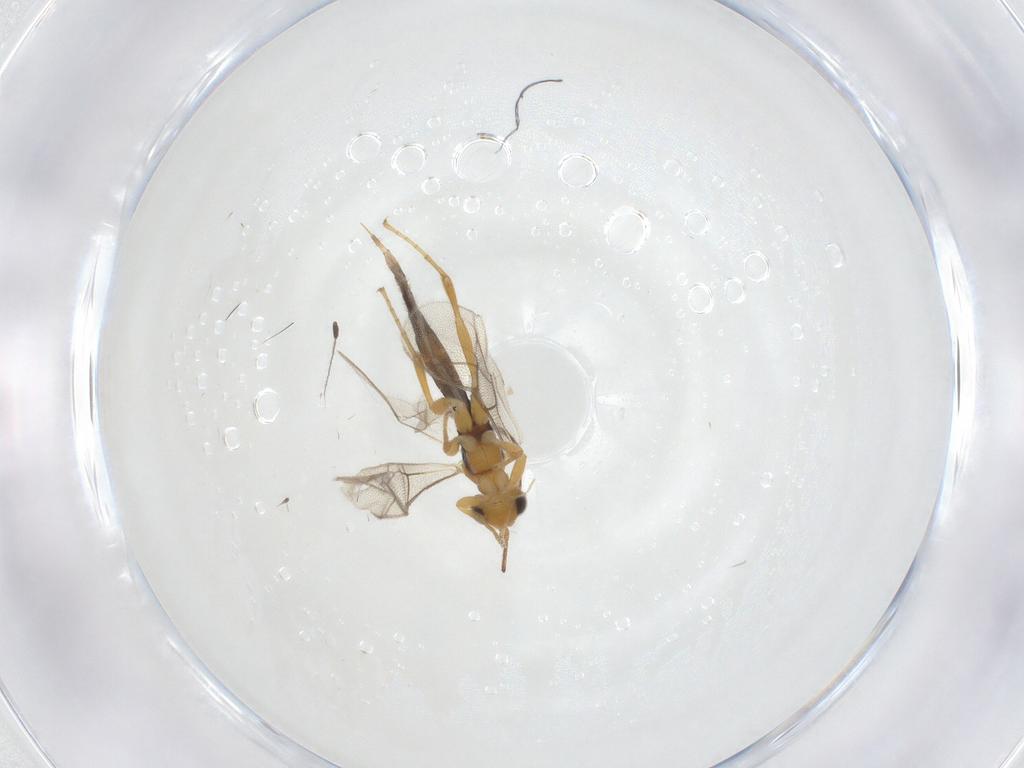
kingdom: Animalia
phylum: Arthropoda
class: Insecta
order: Hymenoptera
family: Ichneumonidae
